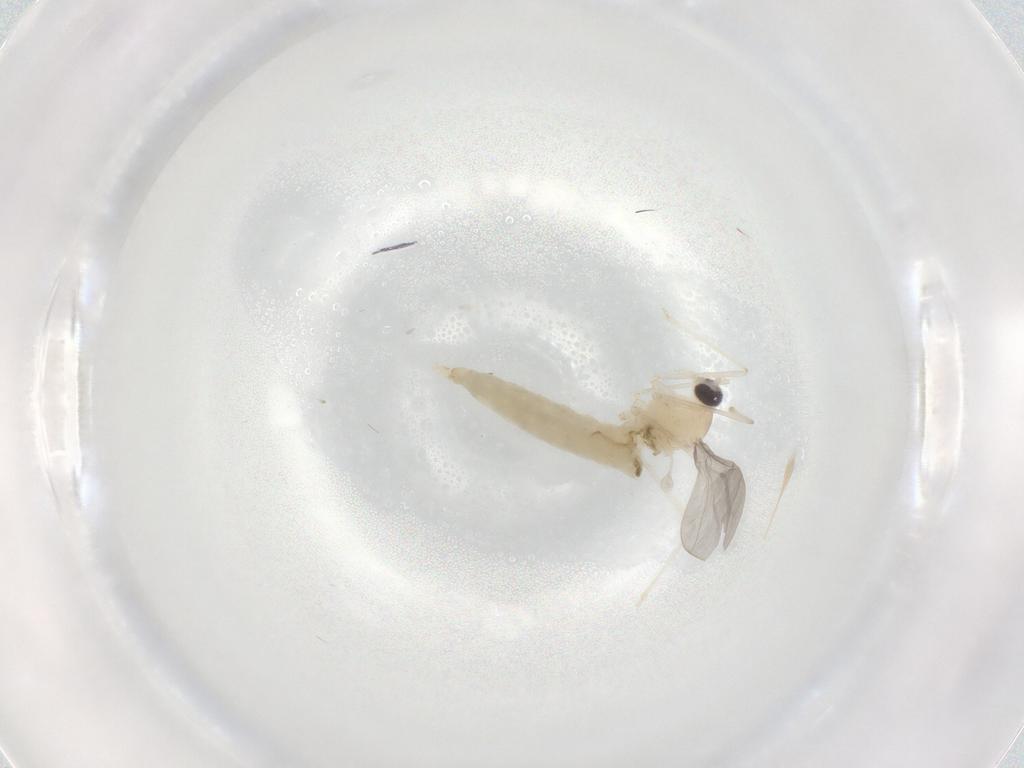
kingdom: Animalia
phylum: Arthropoda
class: Insecta
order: Diptera
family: Cecidomyiidae
